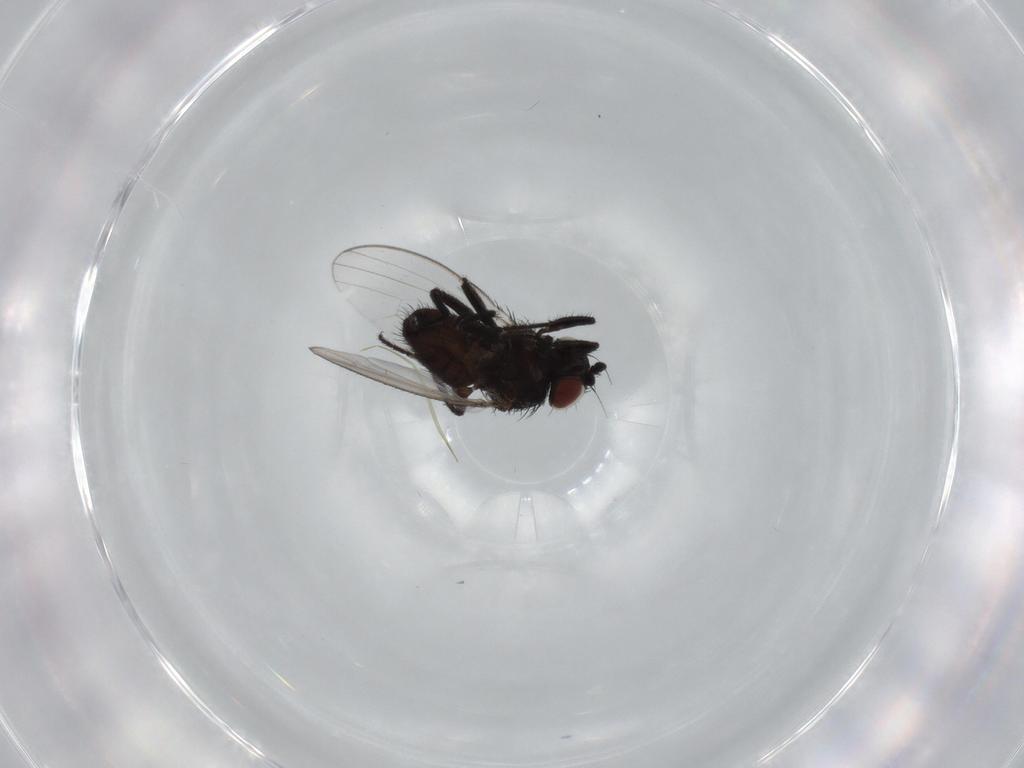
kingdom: Animalia
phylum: Arthropoda
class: Insecta
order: Diptera
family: Milichiidae
